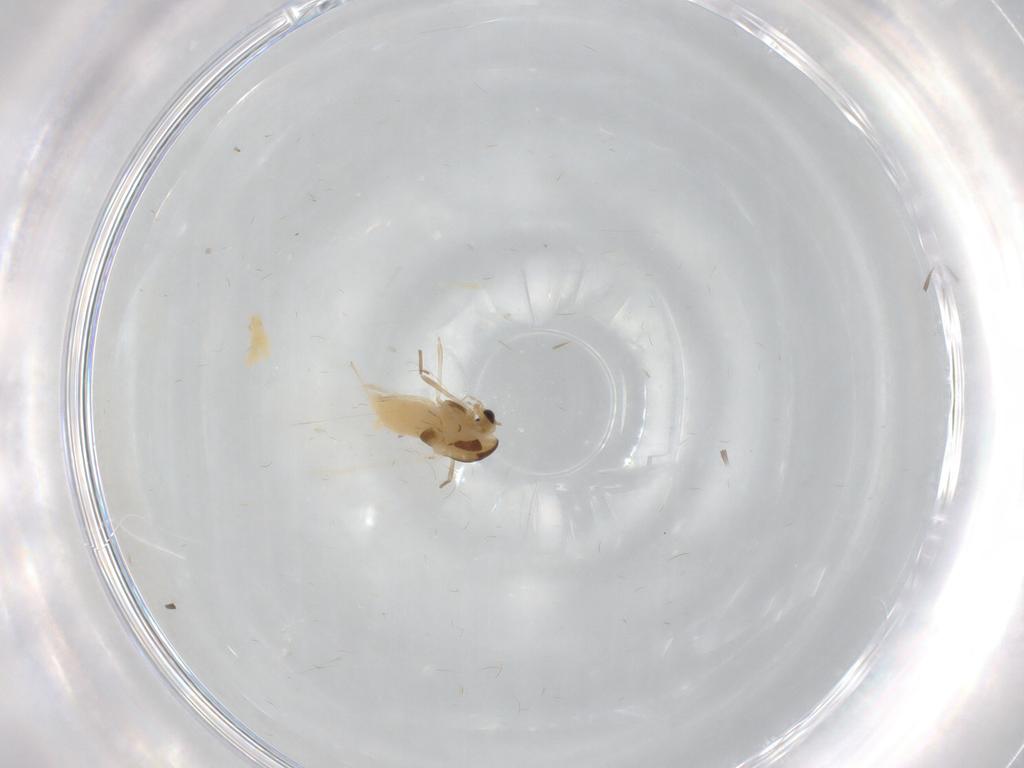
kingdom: Animalia
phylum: Arthropoda
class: Insecta
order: Diptera
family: Chironomidae
